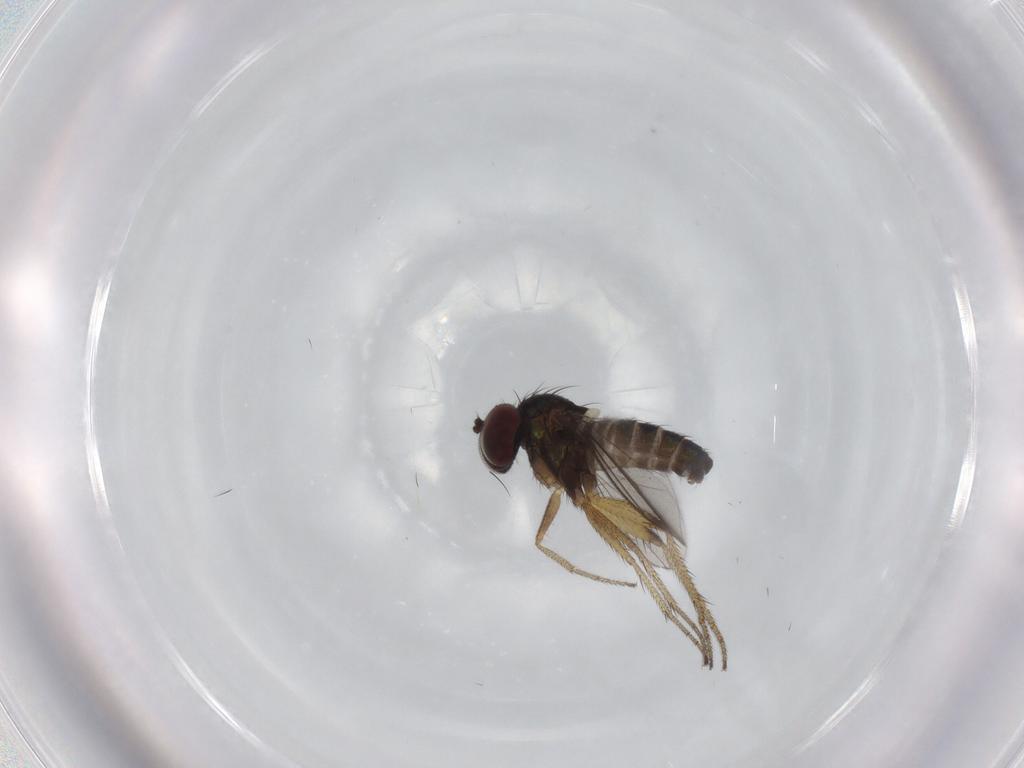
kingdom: Animalia
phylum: Arthropoda
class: Insecta
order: Diptera
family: Dolichopodidae
